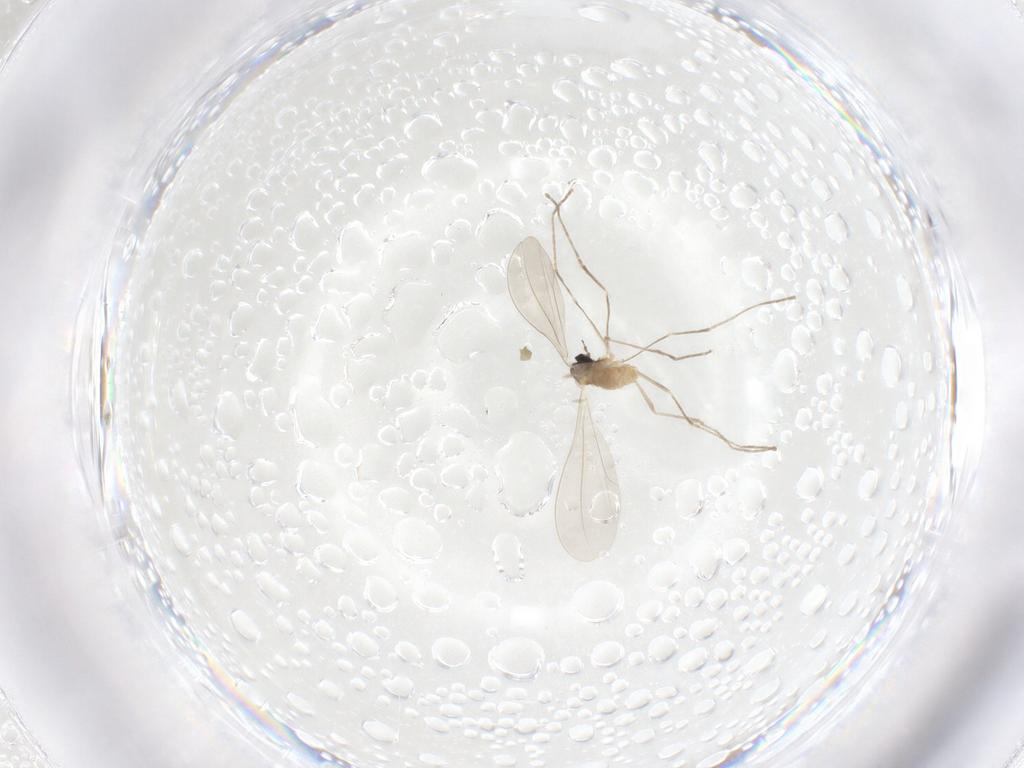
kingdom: Animalia
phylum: Arthropoda
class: Insecta
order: Diptera
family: Cecidomyiidae
